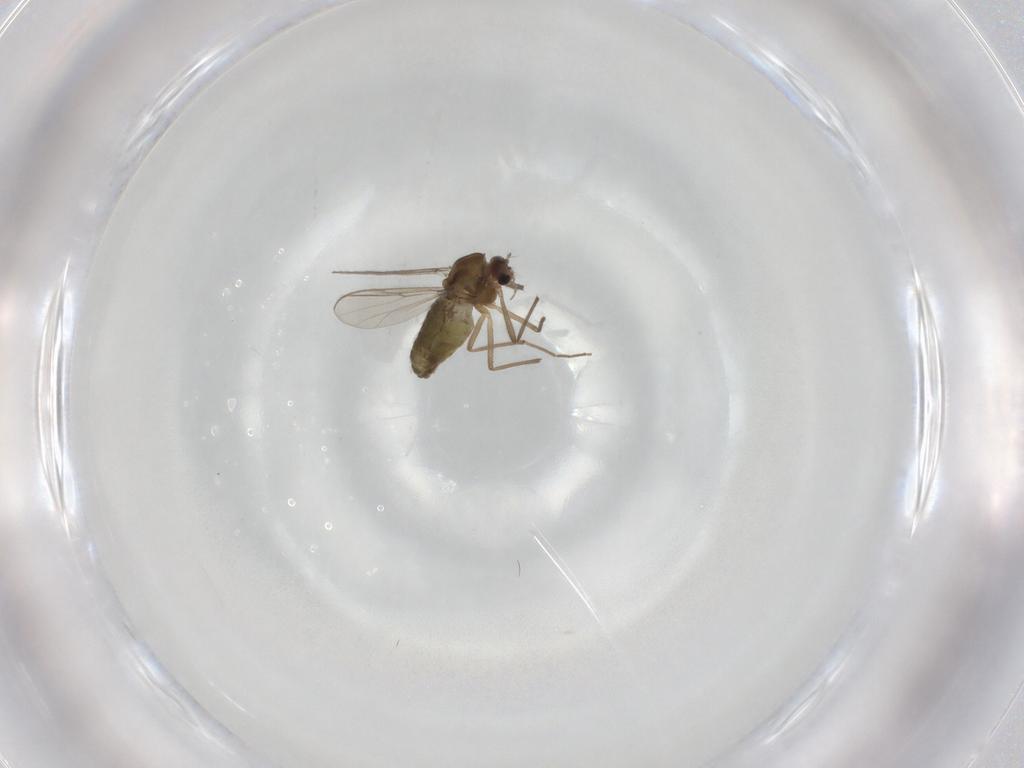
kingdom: Animalia
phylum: Arthropoda
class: Insecta
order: Diptera
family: Chironomidae
